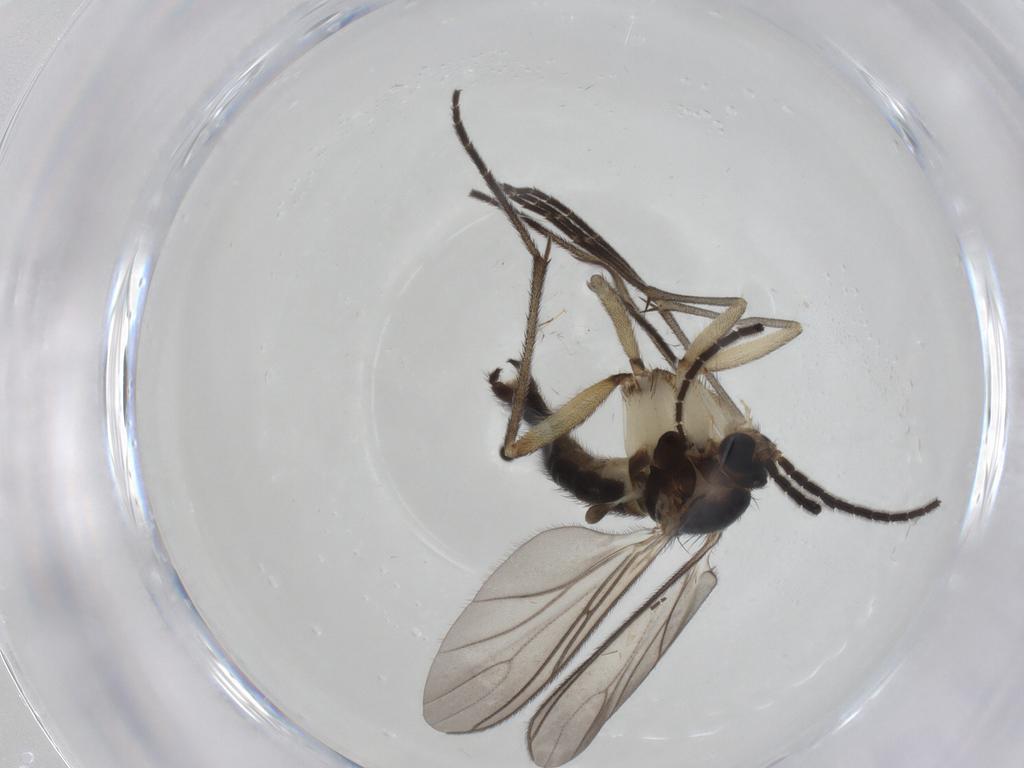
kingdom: Animalia
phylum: Arthropoda
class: Insecta
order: Diptera
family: Sciaridae
